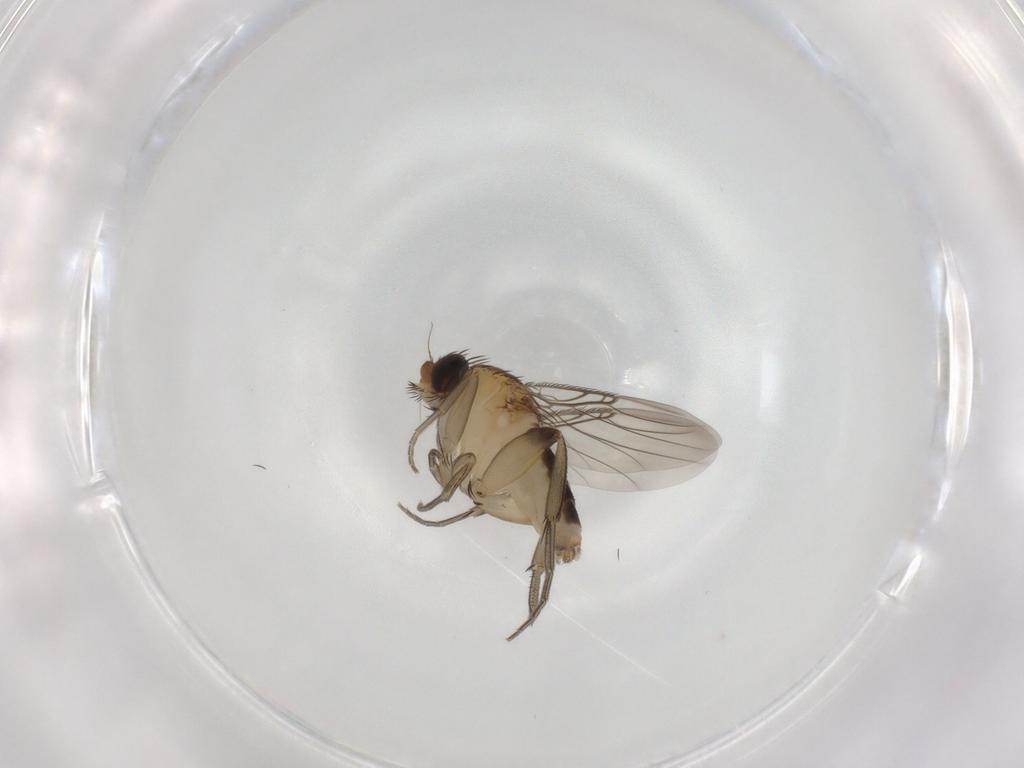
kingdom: Animalia
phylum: Arthropoda
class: Insecta
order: Diptera
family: Phoridae
